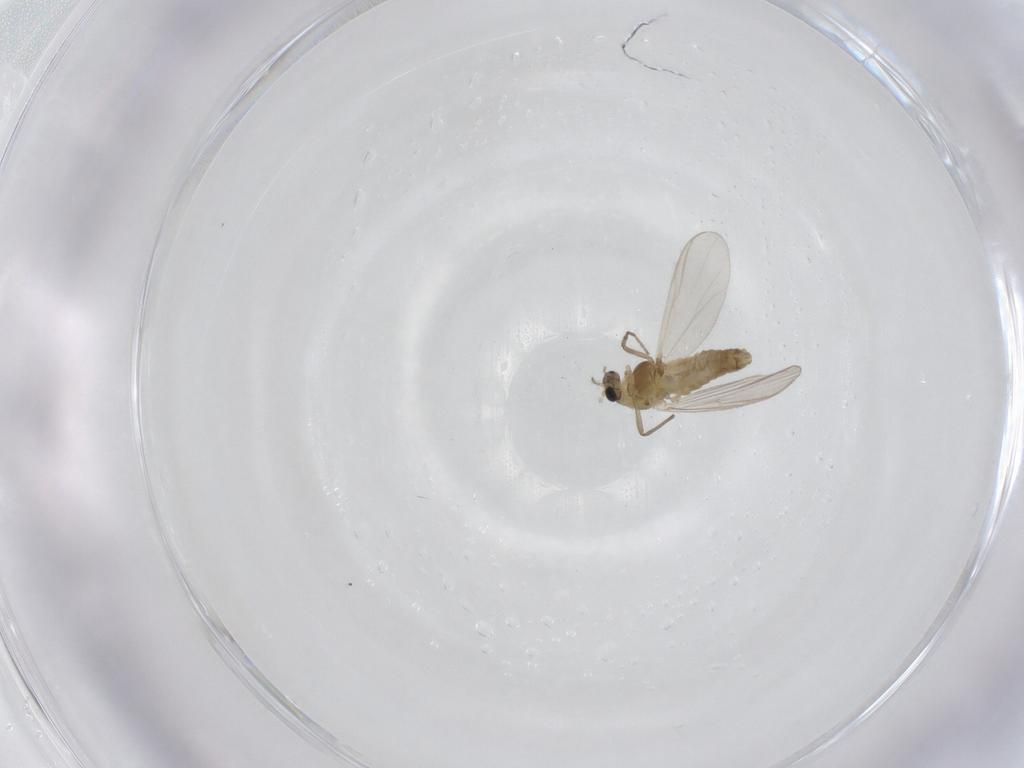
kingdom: Animalia
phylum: Arthropoda
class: Insecta
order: Diptera
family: Chironomidae
